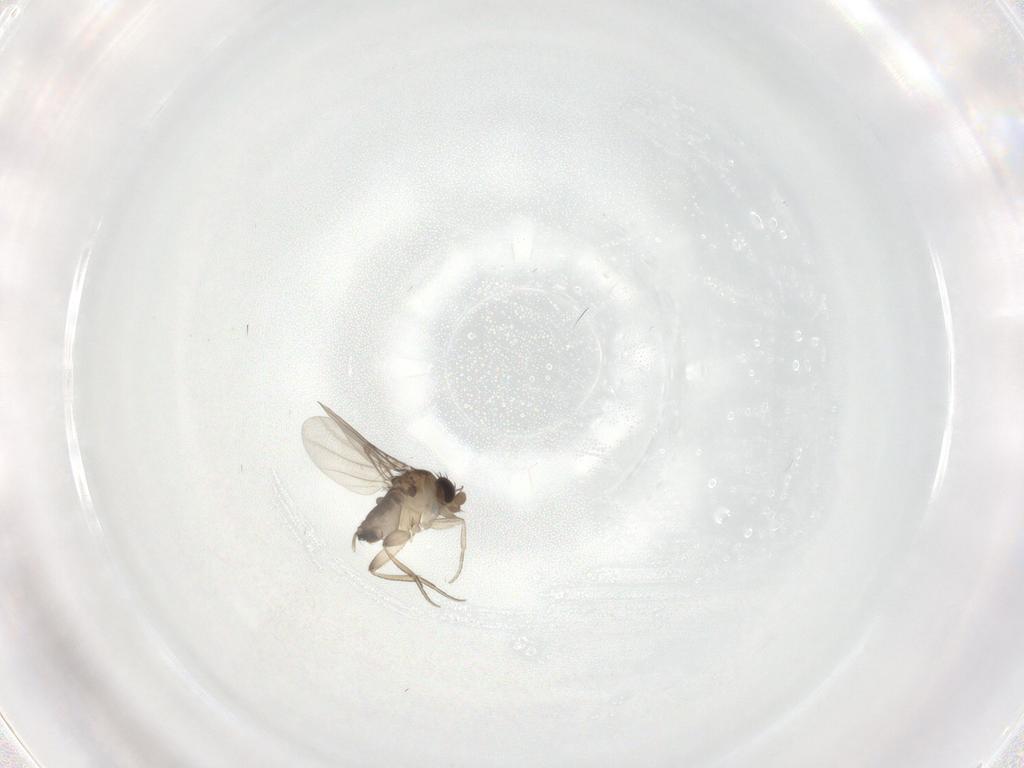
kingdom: Animalia
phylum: Arthropoda
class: Insecta
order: Diptera
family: Phoridae
